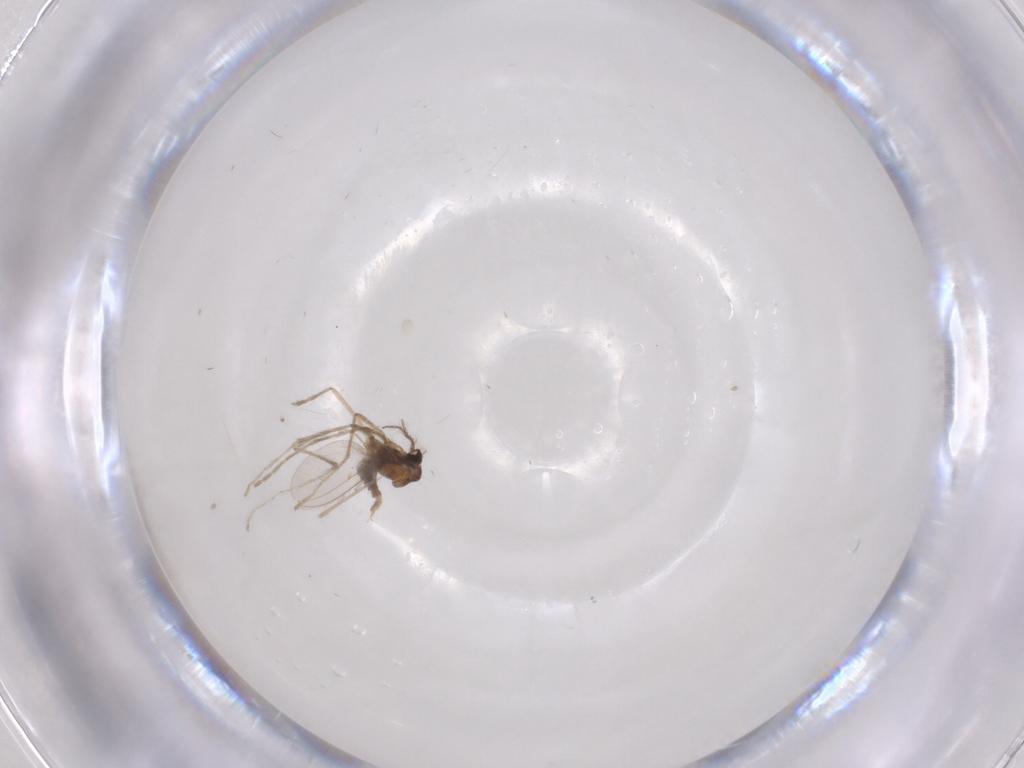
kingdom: Animalia
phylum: Arthropoda
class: Insecta
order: Diptera
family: Cecidomyiidae
